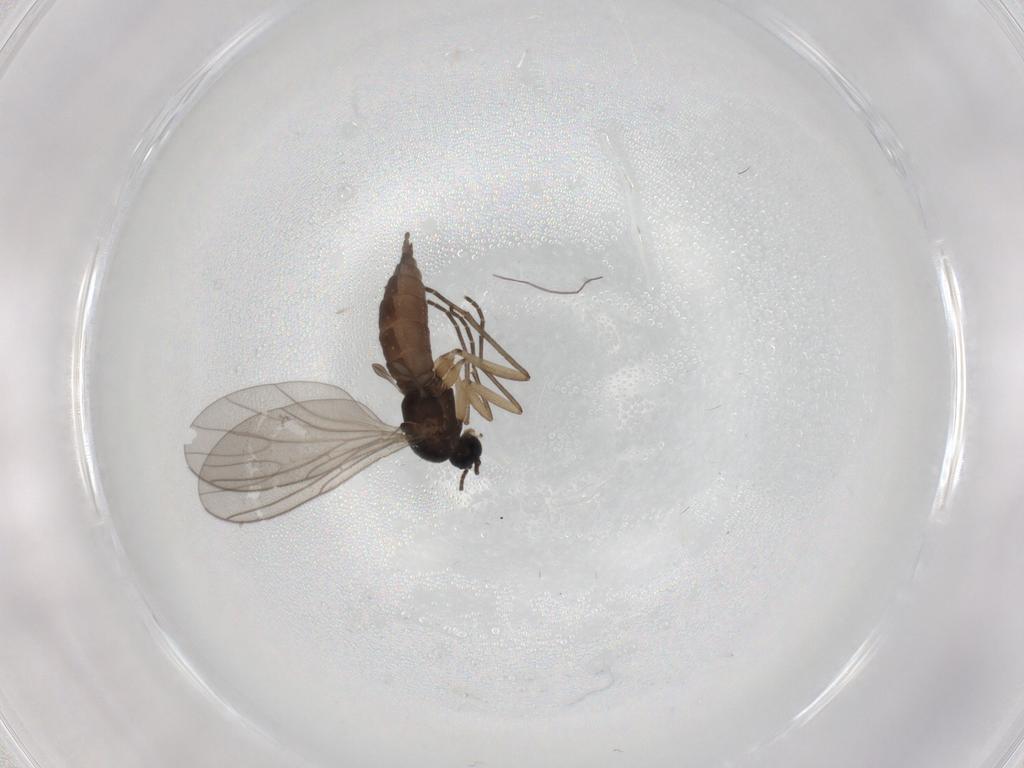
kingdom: Animalia
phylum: Arthropoda
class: Insecta
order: Diptera
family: Sciaridae
